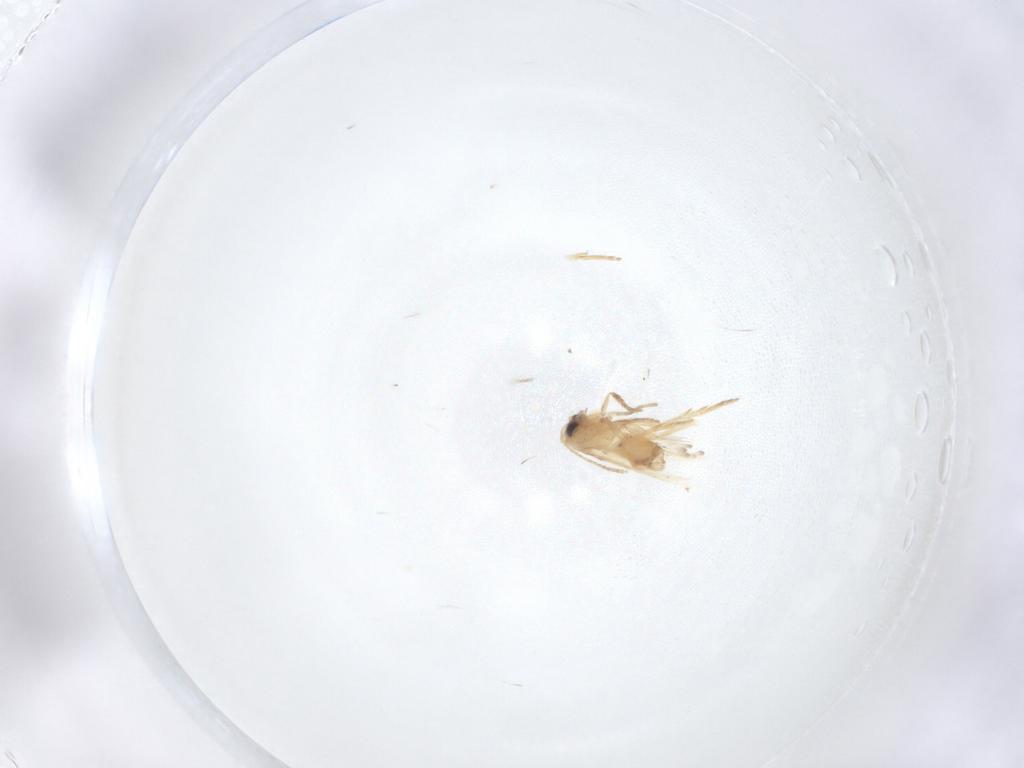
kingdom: Animalia
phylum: Arthropoda
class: Insecta
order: Lepidoptera
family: Nepticulidae
